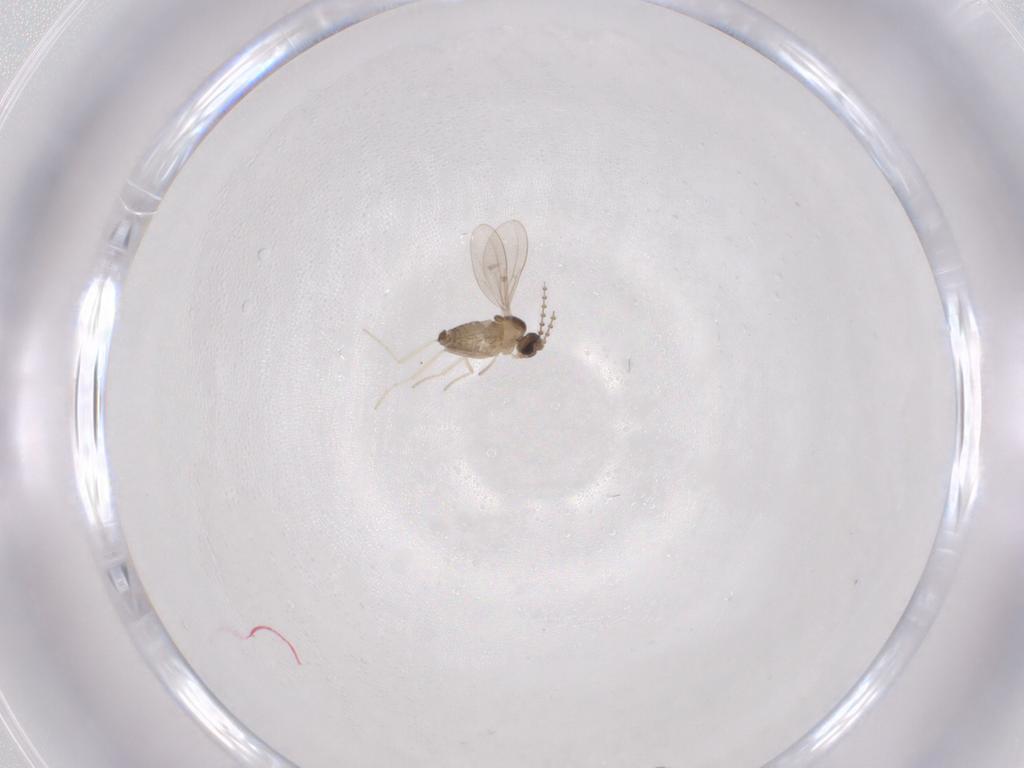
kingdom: Animalia
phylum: Arthropoda
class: Insecta
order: Diptera
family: Cecidomyiidae
